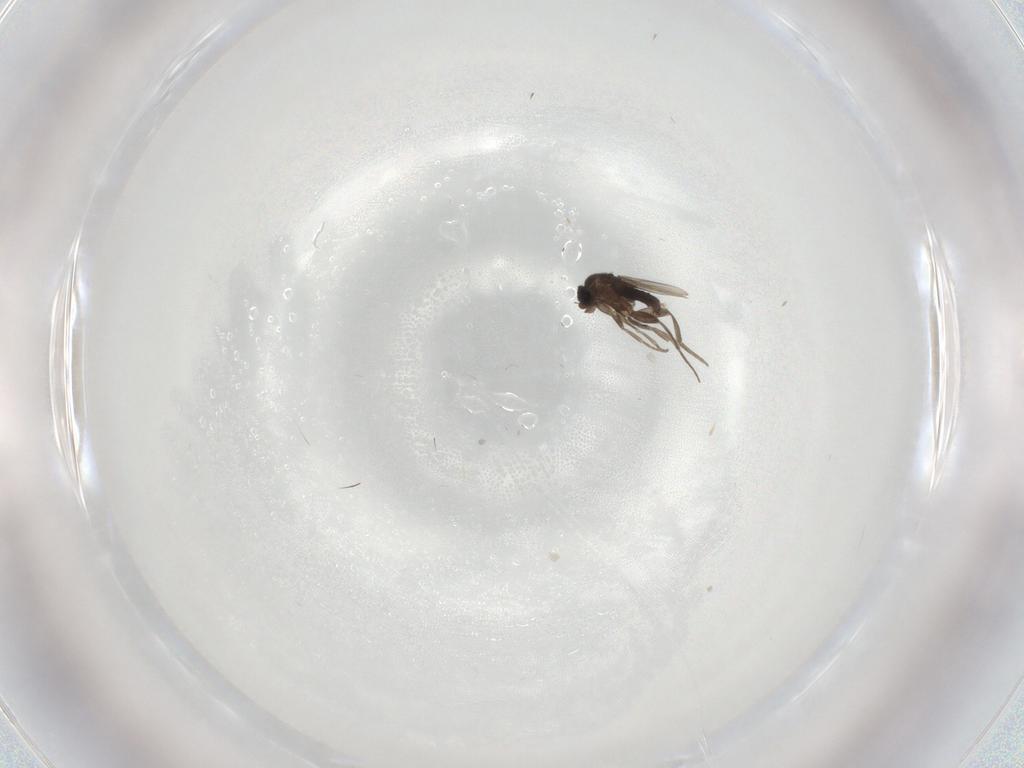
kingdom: Animalia
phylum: Arthropoda
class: Insecta
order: Diptera
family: Phoridae
